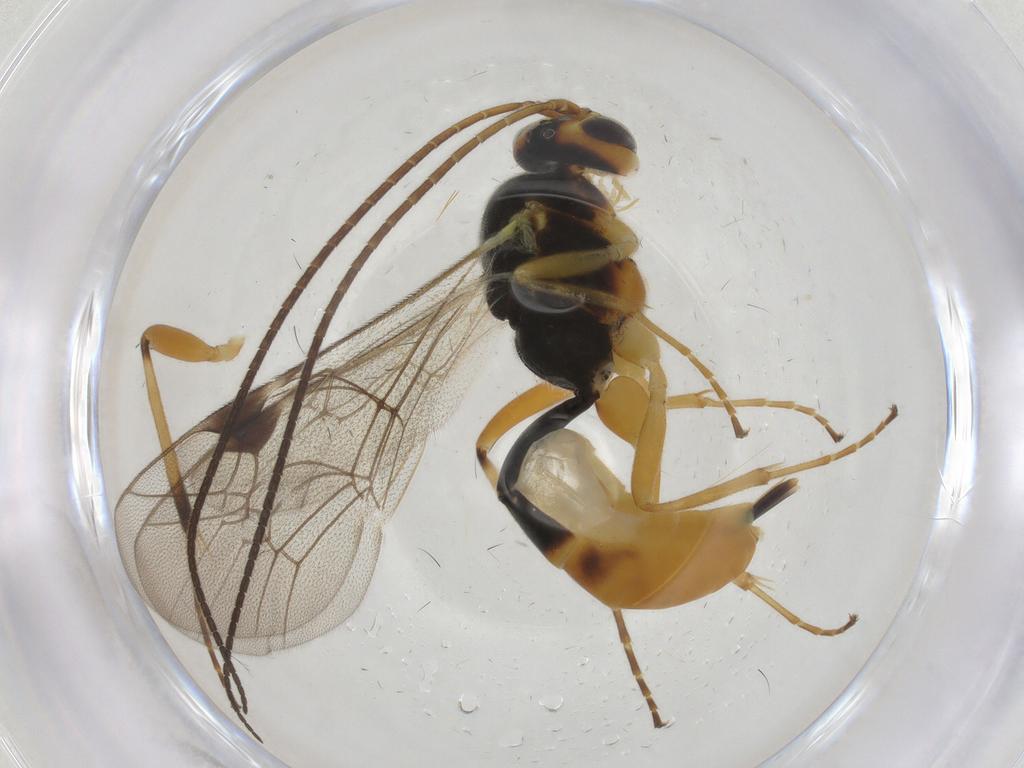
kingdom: Animalia
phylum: Arthropoda
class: Insecta
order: Hymenoptera
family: Ichneumonidae
